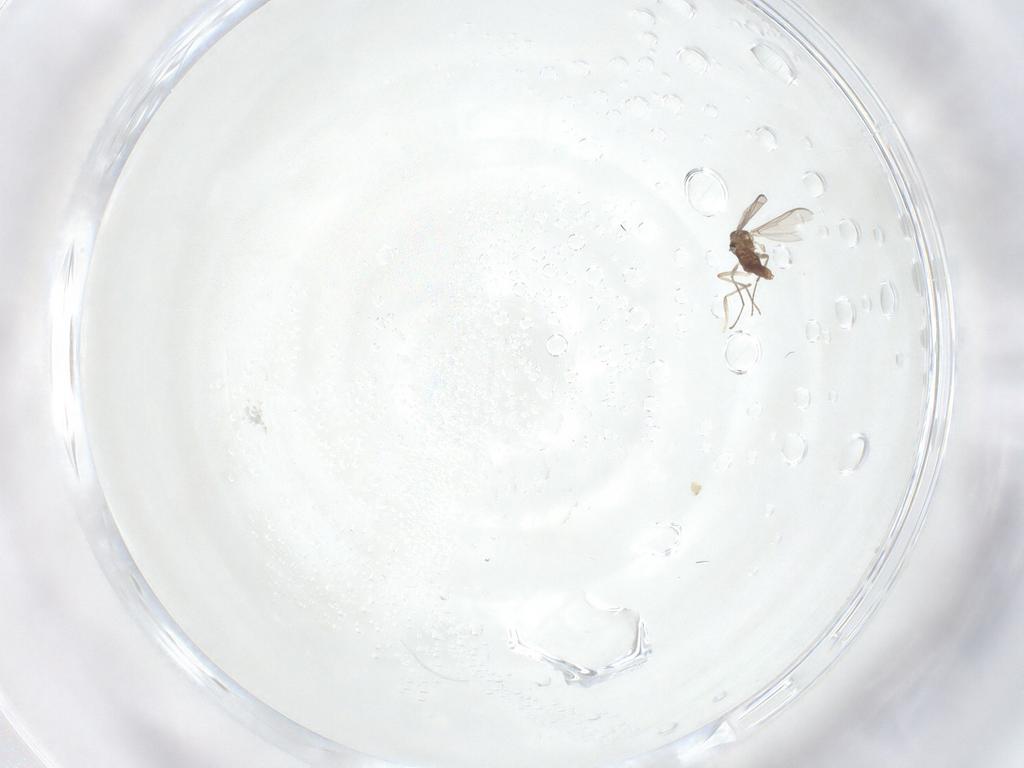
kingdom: Animalia
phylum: Arthropoda
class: Insecta
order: Diptera
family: Chironomidae
